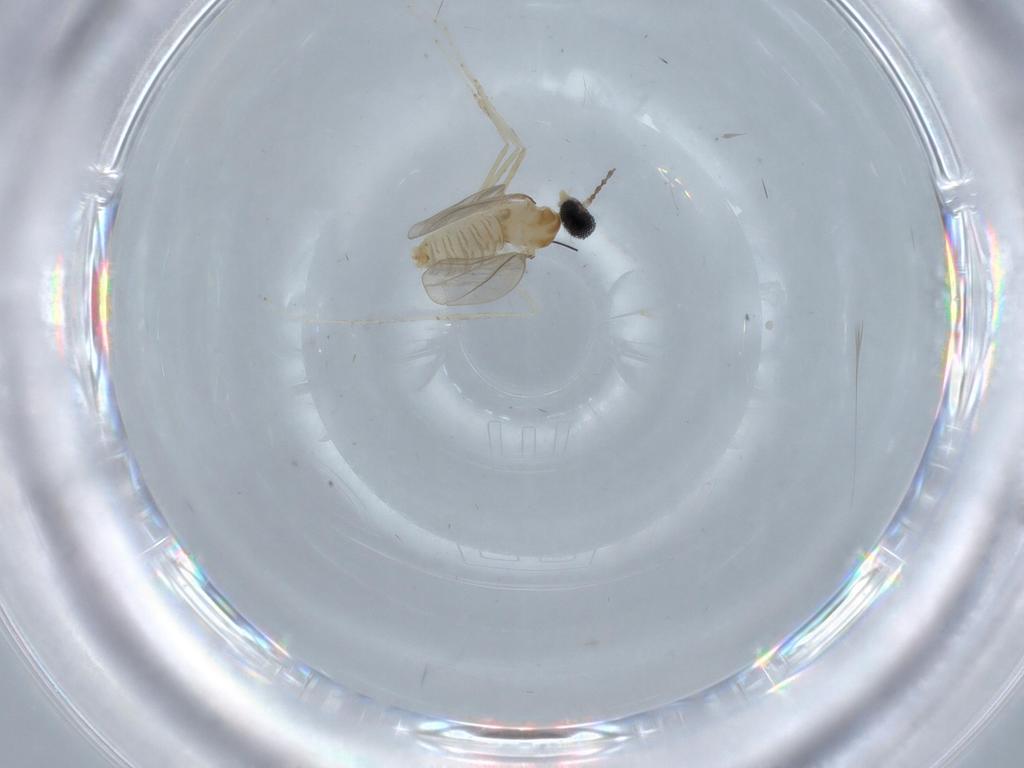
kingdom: Animalia
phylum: Arthropoda
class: Insecta
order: Diptera
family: Cecidomyiidae
